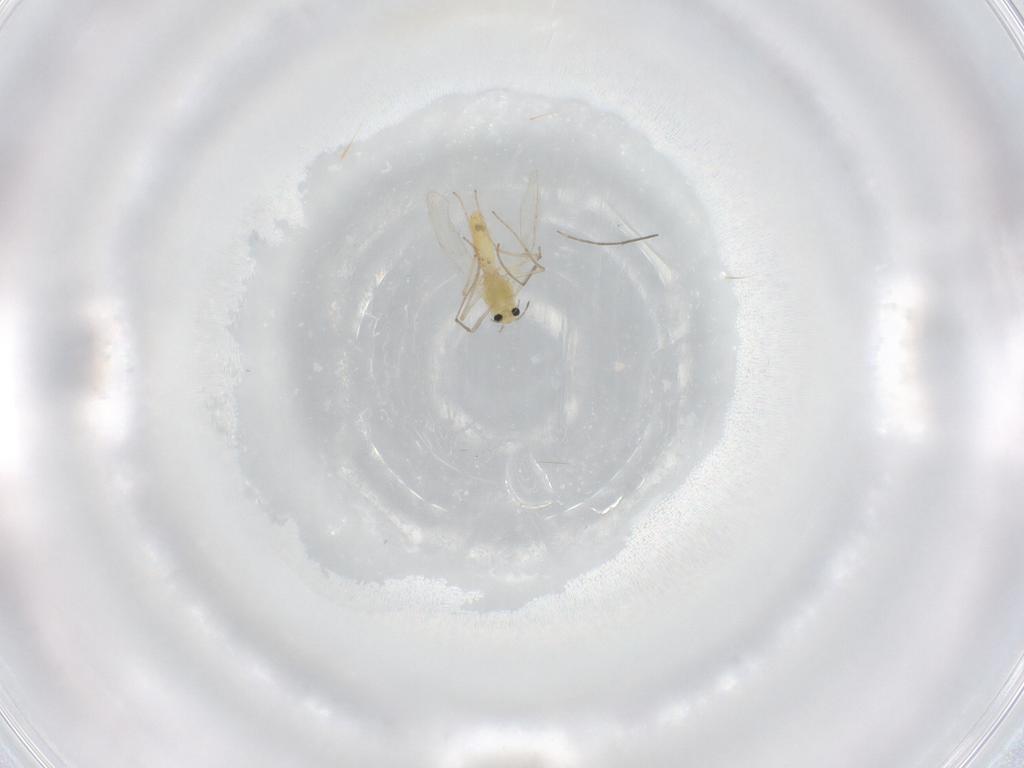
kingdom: Animalia
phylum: Arthropoda
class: Insecta
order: Diptera
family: Chironomidae
